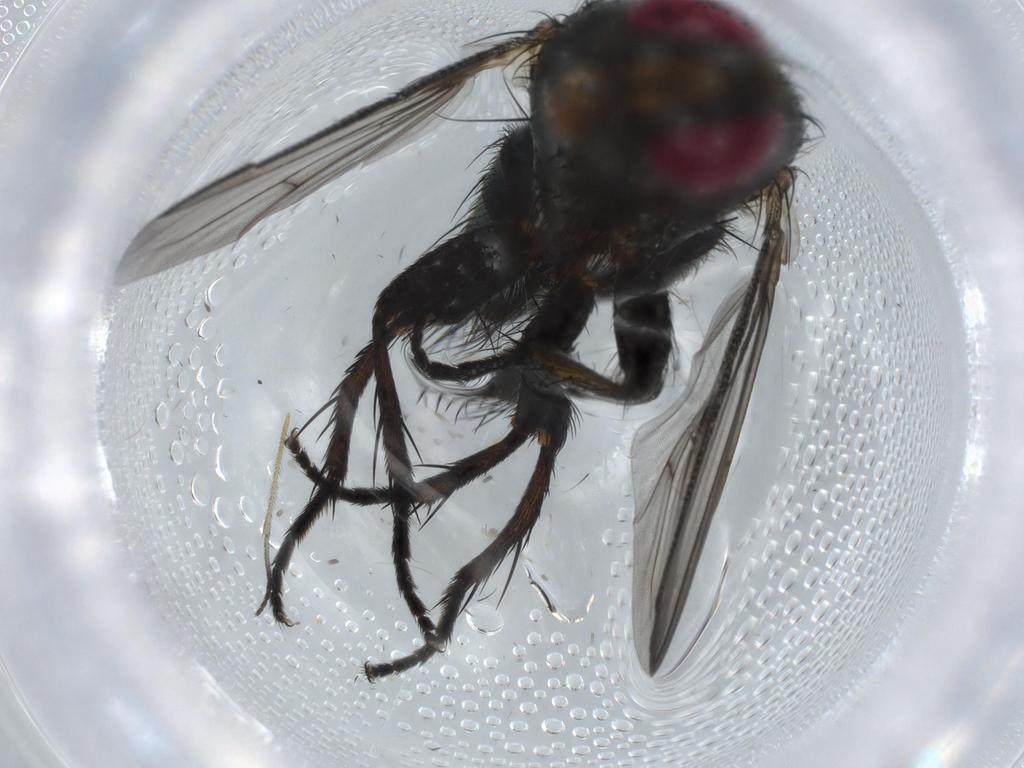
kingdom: Animalia
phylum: Arthropoda
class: Insecta
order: Diptera
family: Muscidae
